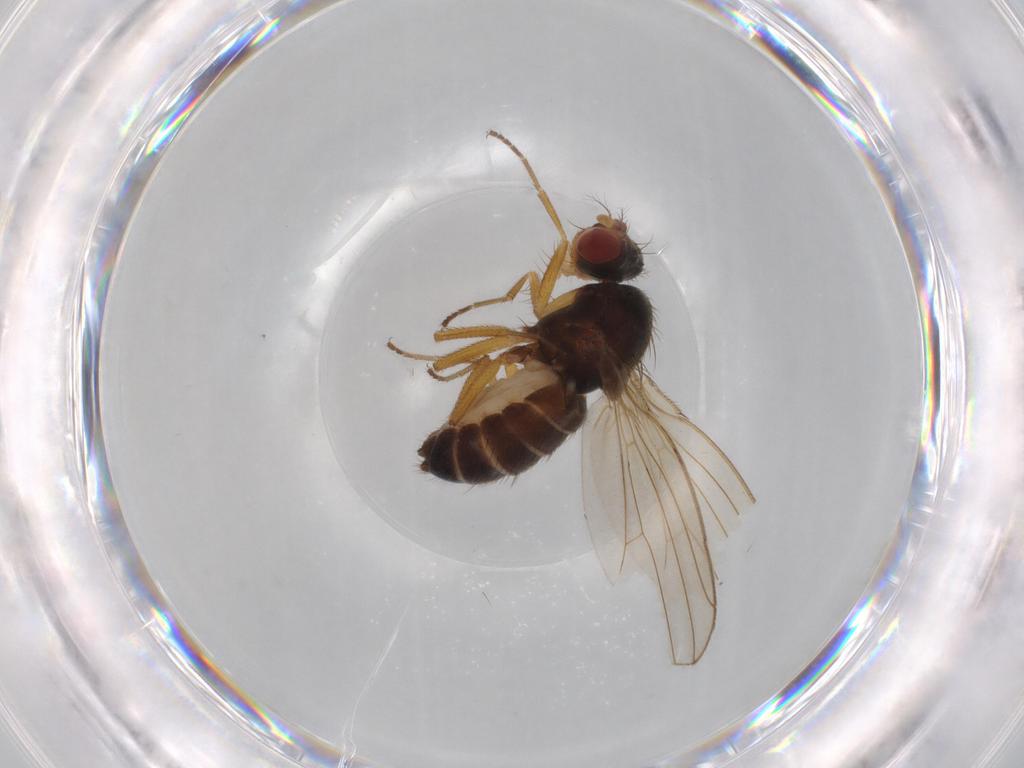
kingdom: Animalia
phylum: Arthropoda
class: Insecta
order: Diptera
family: Drosophilidae
